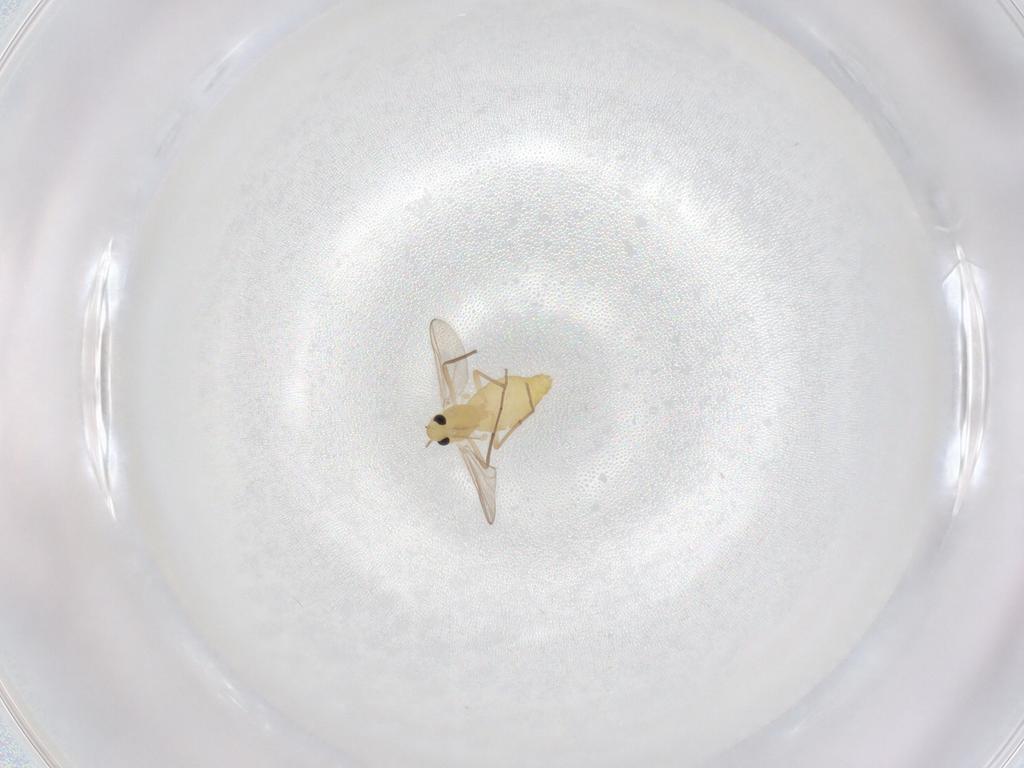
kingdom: Animalia
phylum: Arthropoda
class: Insecta
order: Diptera
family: Chironomidae
